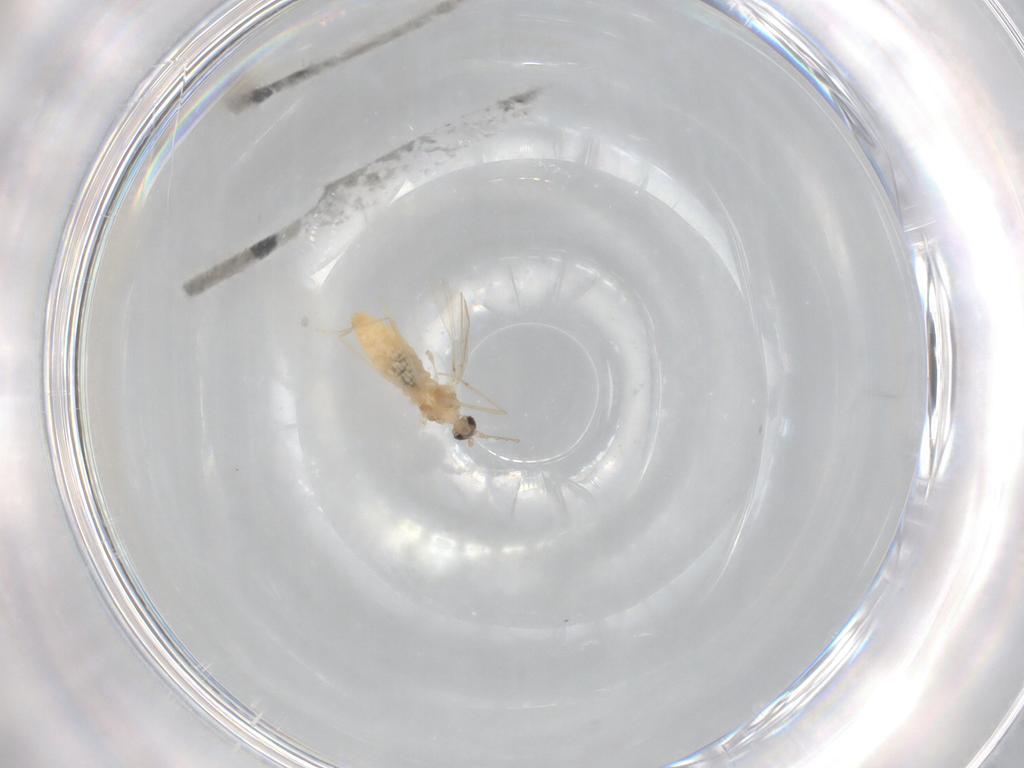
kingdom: Animalia
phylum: Arthropoda
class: Insecta
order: Diptera
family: Cecidomyiidae
